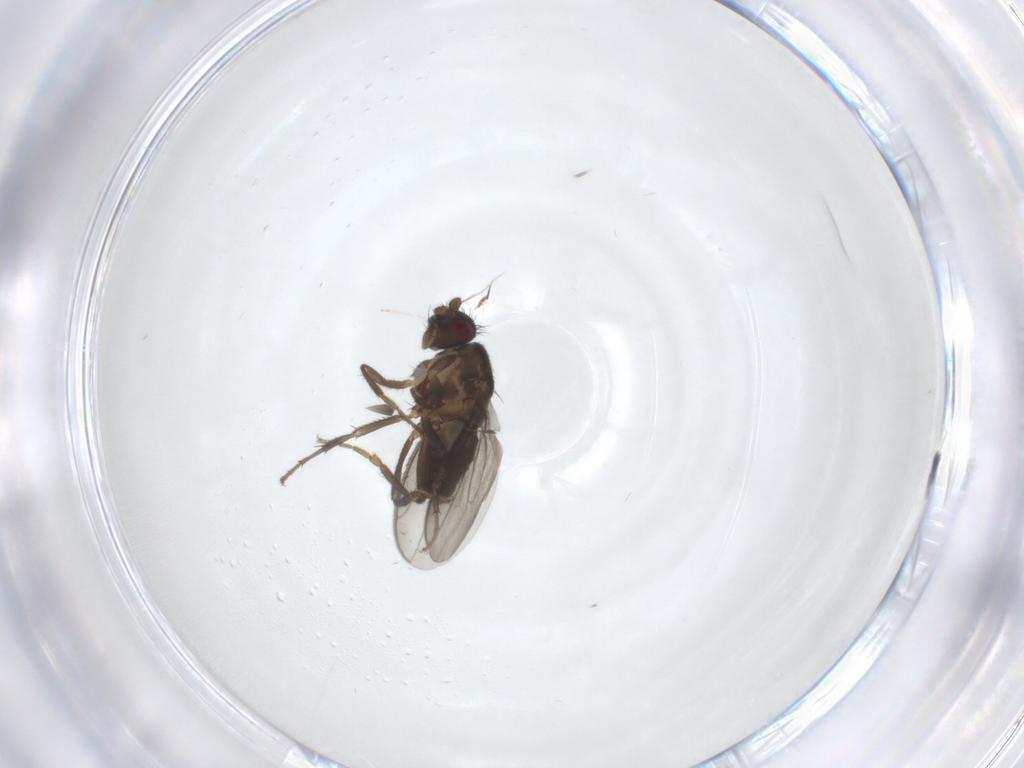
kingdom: Animalia
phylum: Arthropoda
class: Insecta
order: Diptera
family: Sphaeroceridae
